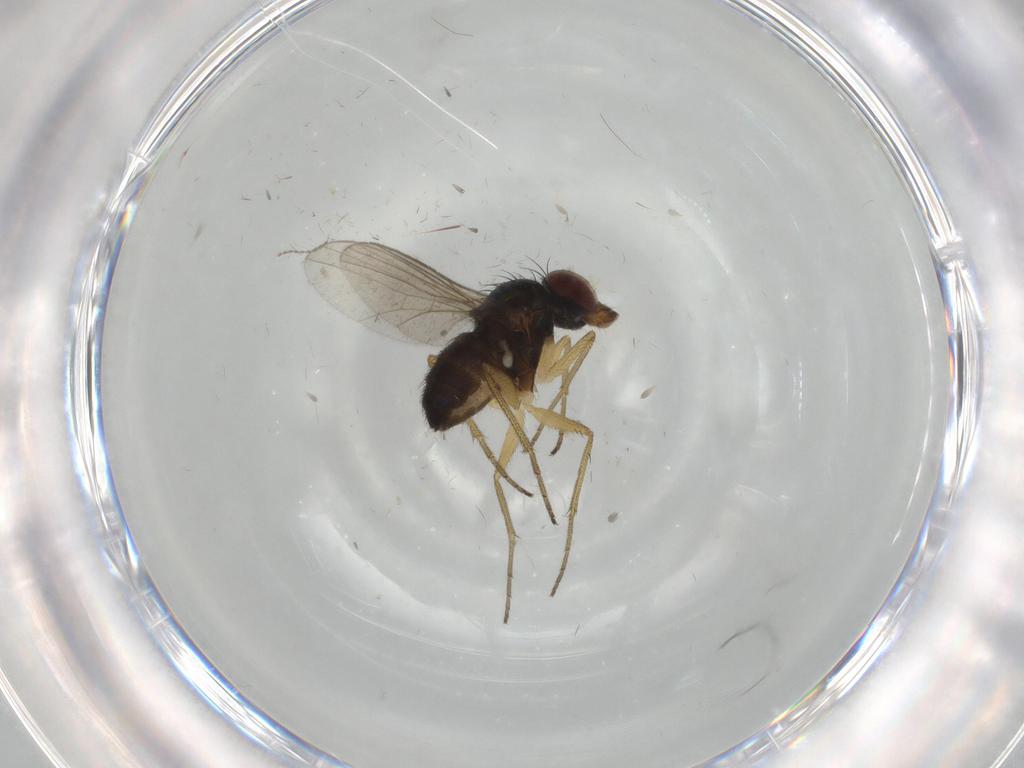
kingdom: Animalia
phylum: Arthropoda
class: Insecta
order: Diptera
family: Dolichopodidae
